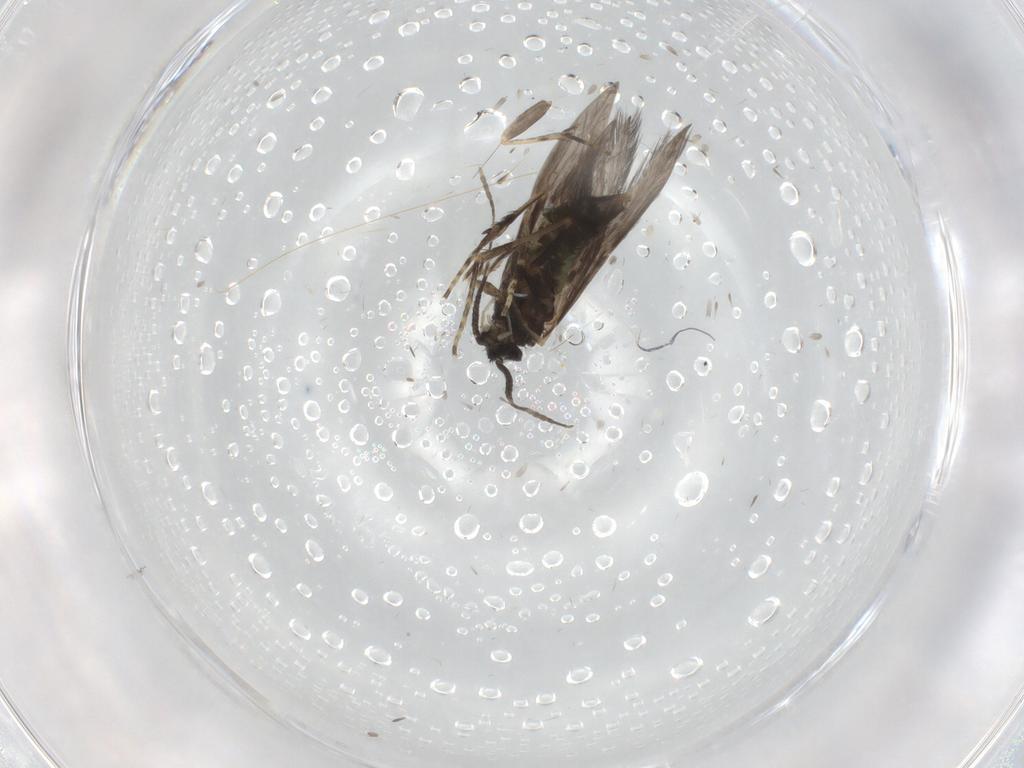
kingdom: Animalia
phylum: Arthropoda
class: Insecta
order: Trichoptera
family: Hydroptilidae
